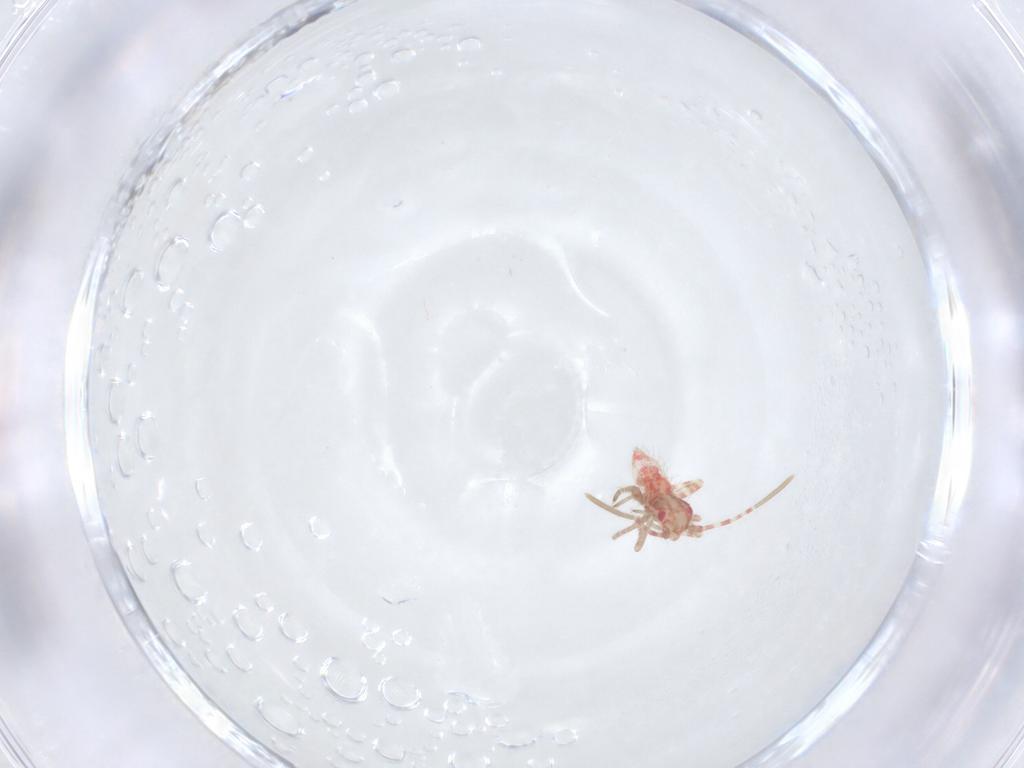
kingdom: Animalia
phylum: Arthropoda
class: Insecta
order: Hemiptera
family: Miridae
